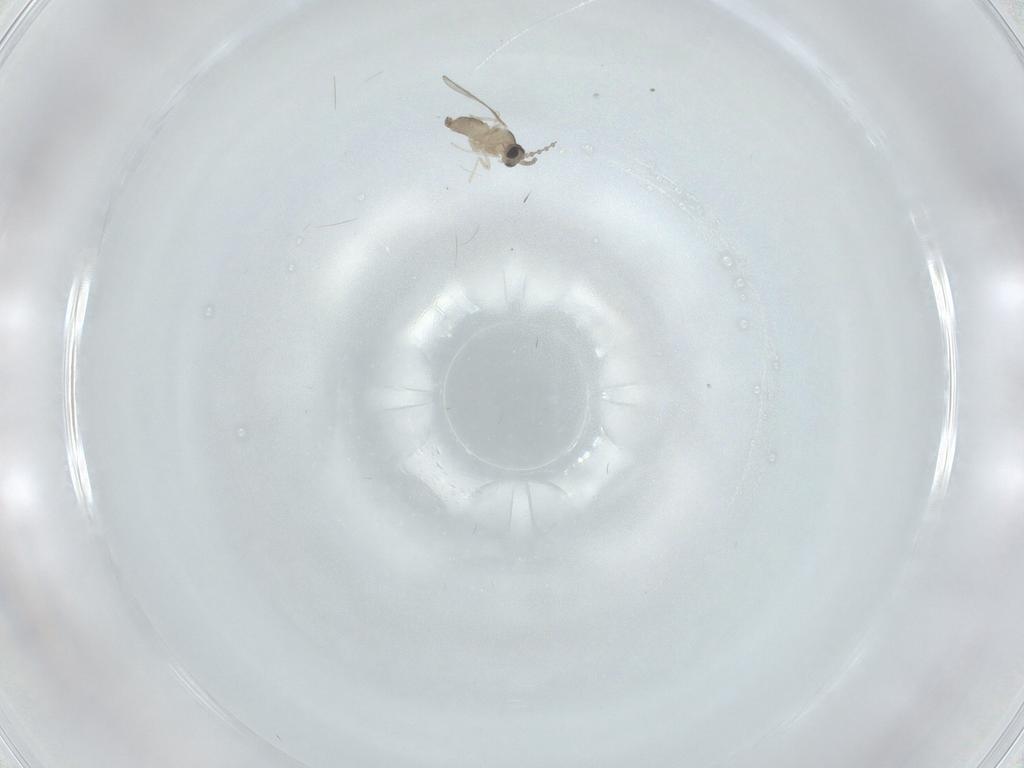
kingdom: Animalia
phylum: Arthropoda
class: Insecta
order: Diptera
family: Cecidomyiidae
